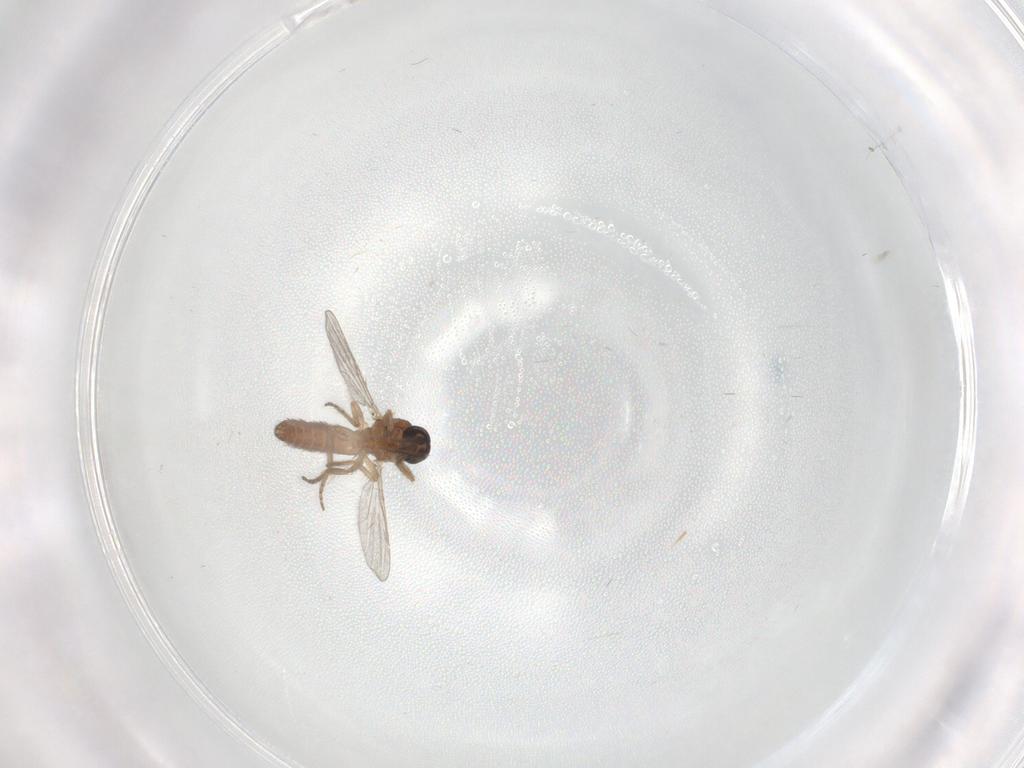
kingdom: Animalia
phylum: Arthropoda
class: Insecta
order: Diptera
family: Ceratopogonidae
